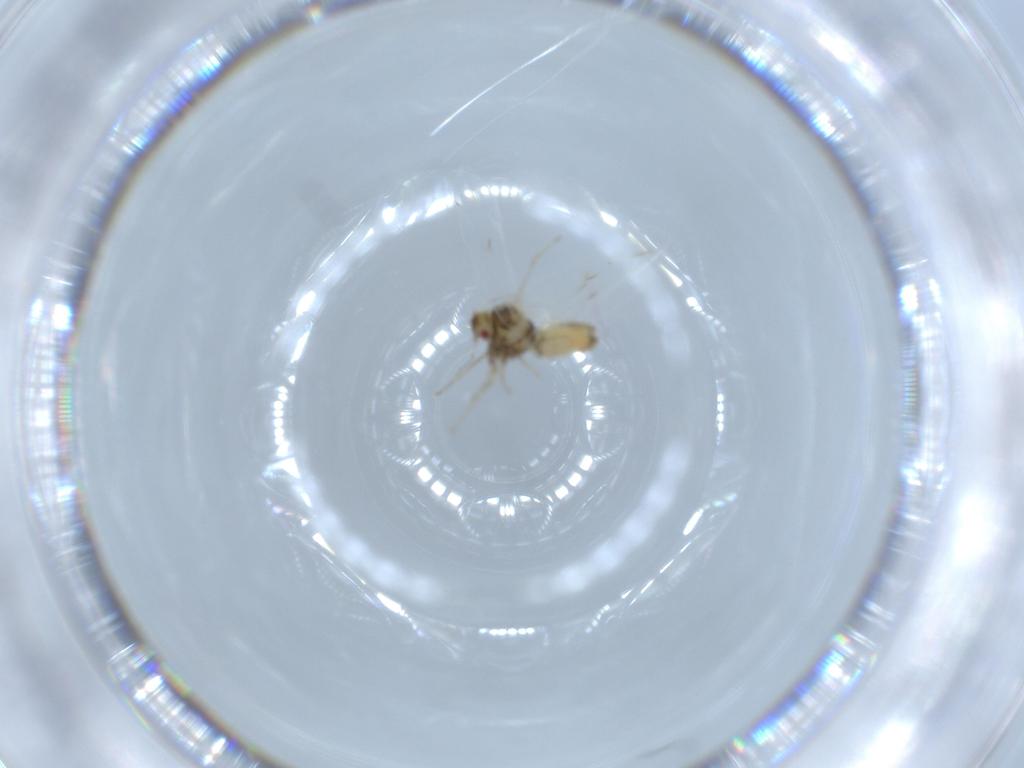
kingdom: Animalia
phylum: Arthropoda
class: Insecta
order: Hemiptera
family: Aleyrodidae
